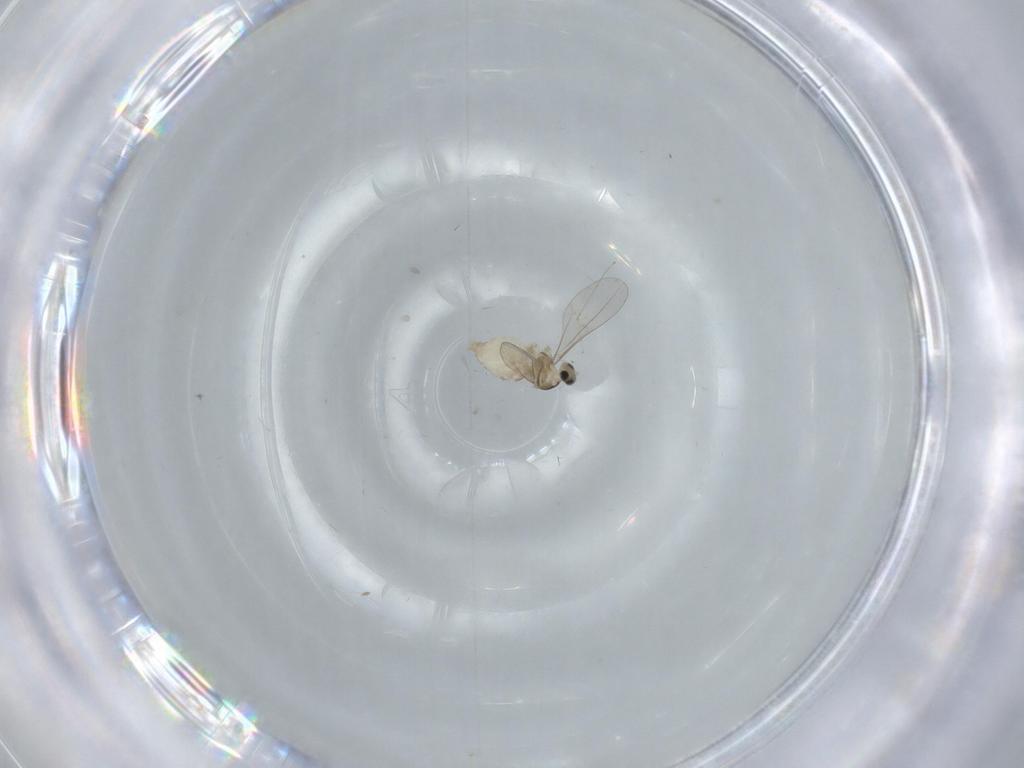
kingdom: Animalia
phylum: Arthropoda
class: Insecta
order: Diptera
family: Cecidomyiidae
